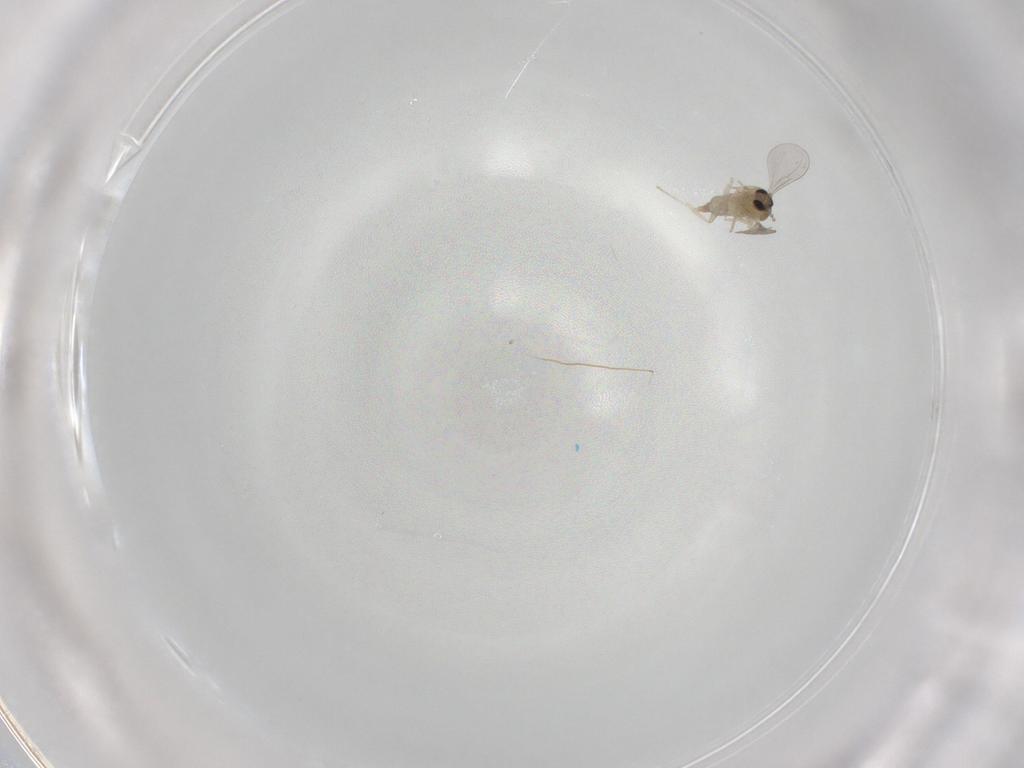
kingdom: Animalia
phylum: Arthropoda
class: Insecta
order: Diptera
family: Cecidomyiidae
